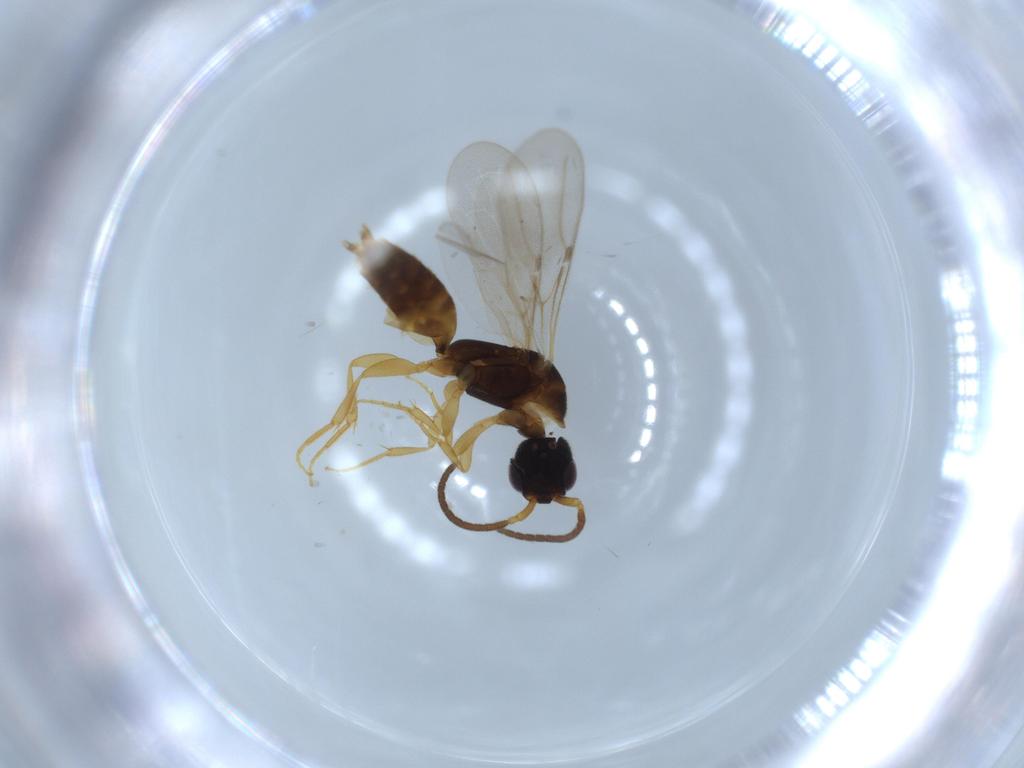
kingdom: Animalia
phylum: Arthropoda
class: Insecta
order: Hymenoptera
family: Bethylidae
